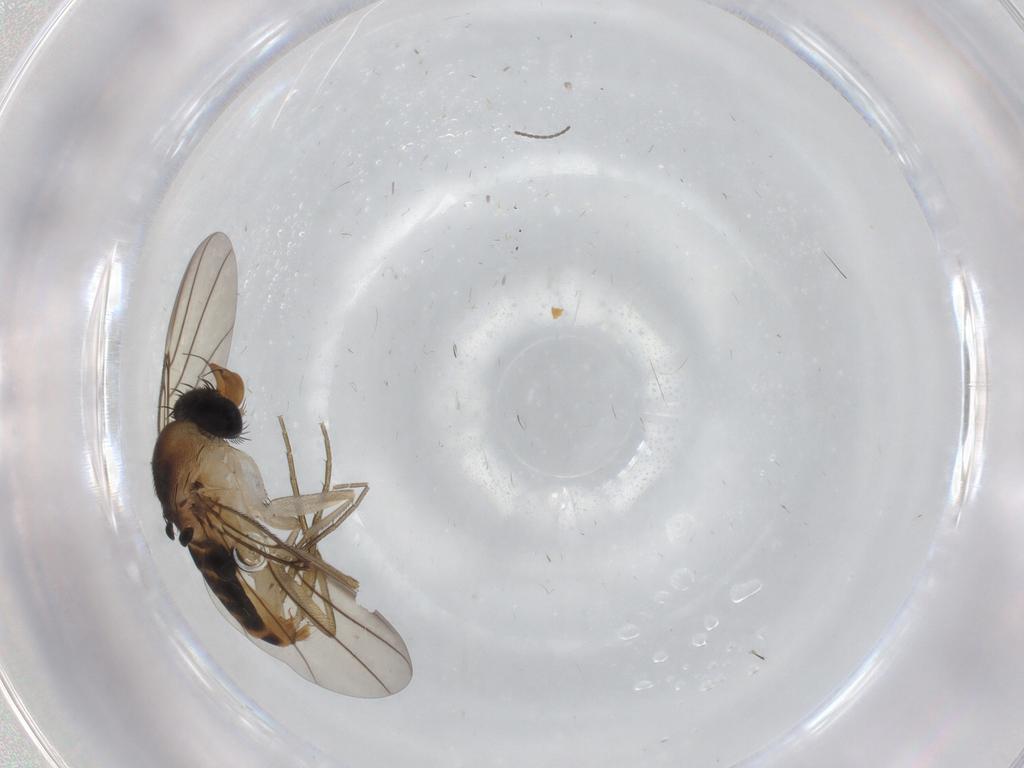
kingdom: Animalia
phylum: Arthropoda
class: Insecta
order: Diptera
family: Phoridae
